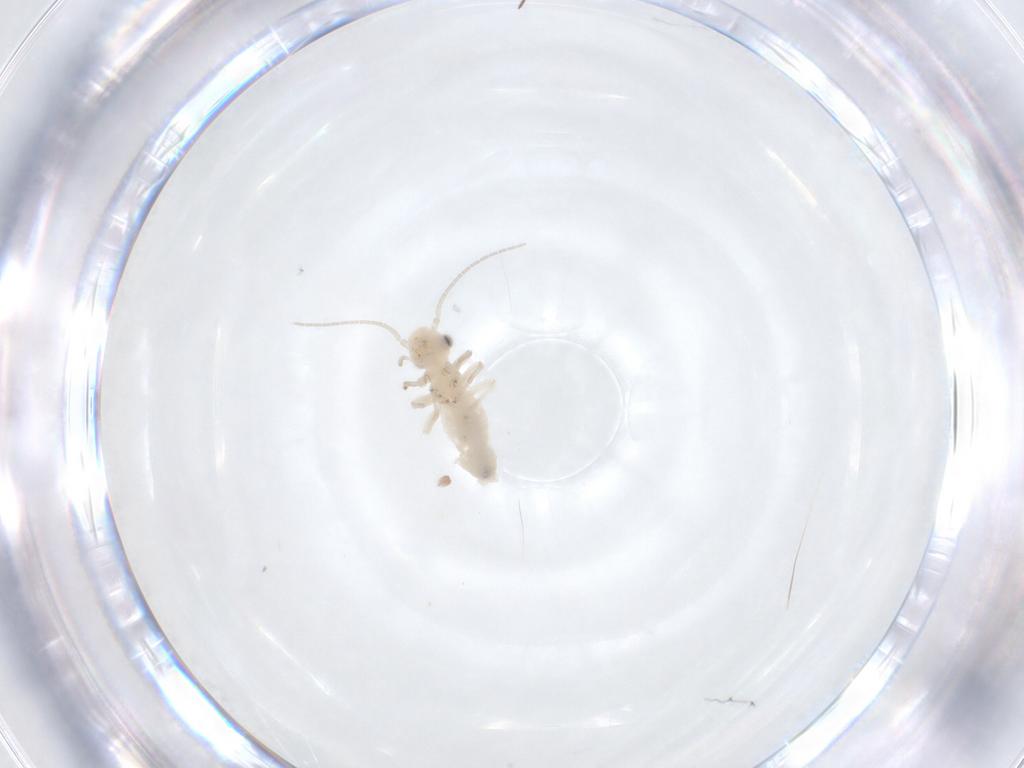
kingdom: Animalia
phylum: Arthropoda
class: Insecta
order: Psocodea
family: Caeciliusidae
